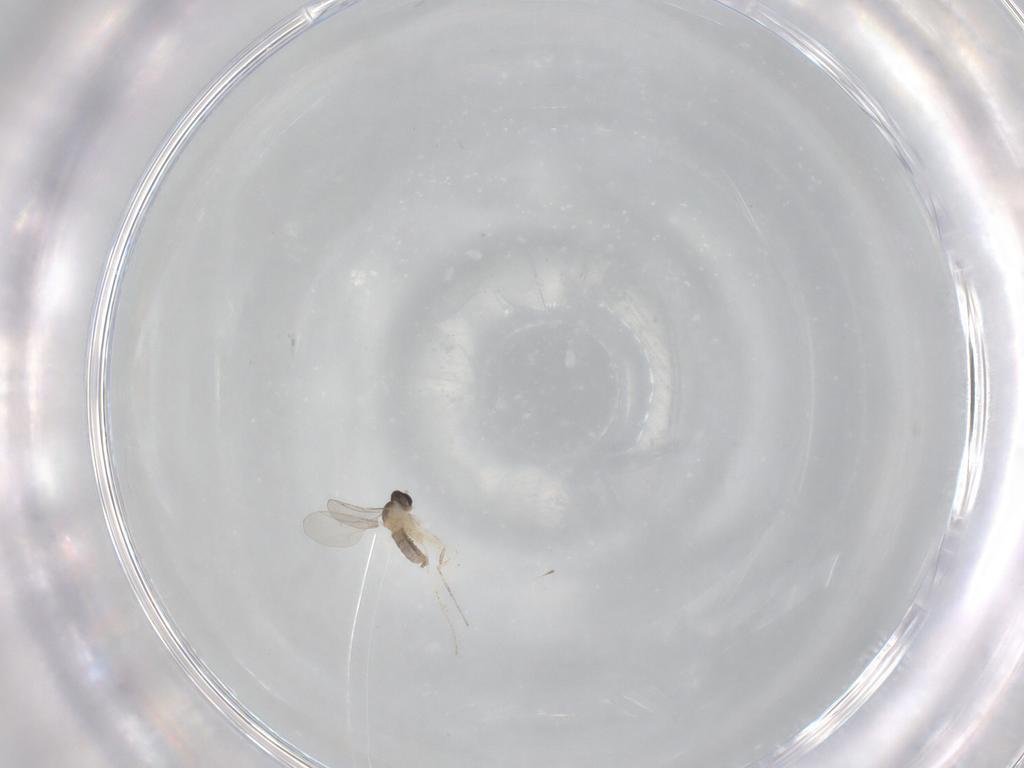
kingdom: Animalia
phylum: Arthropoda
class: Insecta
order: Diptera
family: Cecidomyiidae
